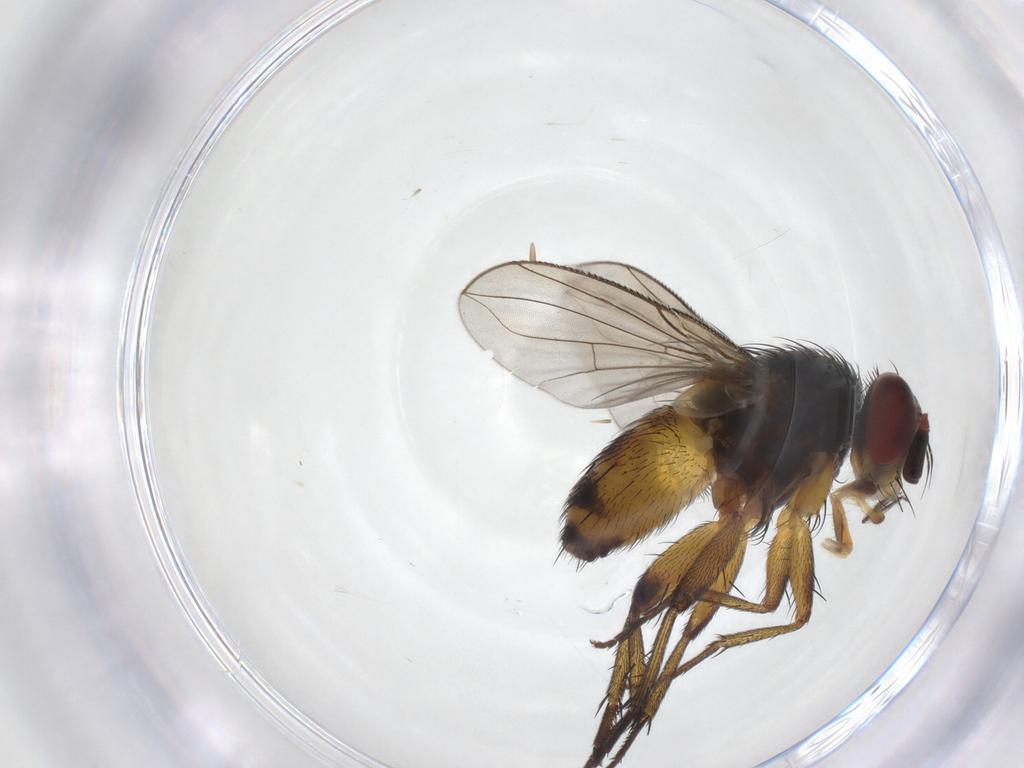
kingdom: Animalia
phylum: Arthropoda
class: Insecta
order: Diptera
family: Tachinidae
